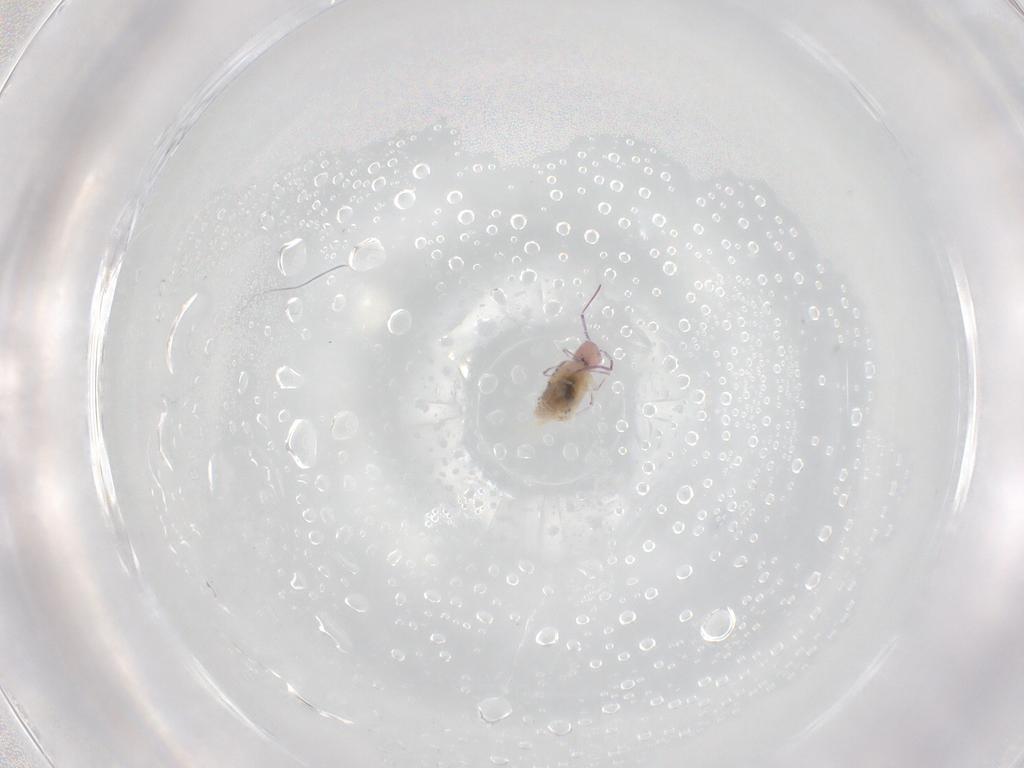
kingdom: Animalia
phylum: Arthropoda
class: Collembola
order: Symphypleona
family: Bourletiellidae
